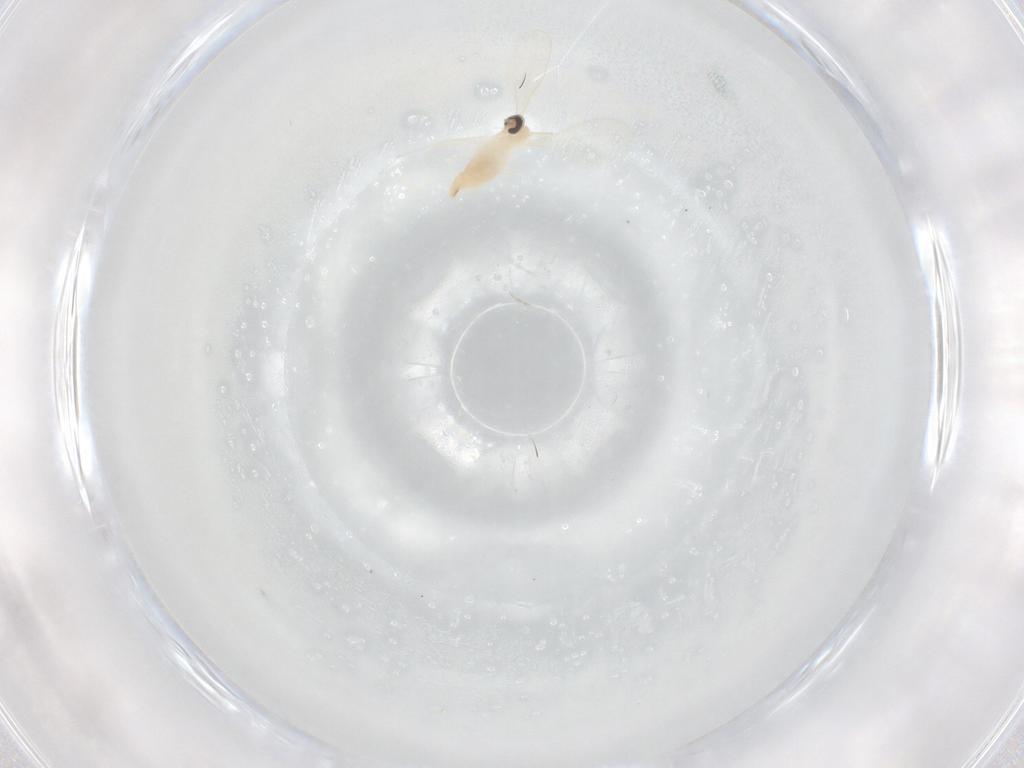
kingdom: Animalia
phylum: Arthropoda
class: Insecta
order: Diptera
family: Cecidomyiidae
